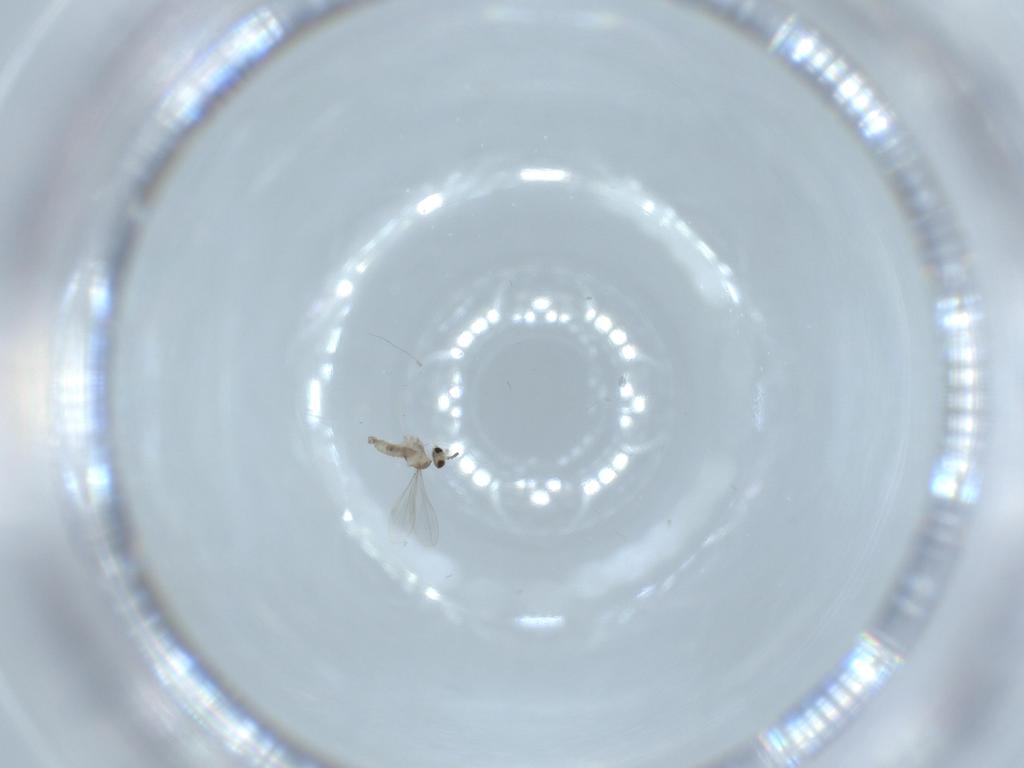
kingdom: Animalia
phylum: Arthropoda
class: Insecta
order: Diptera
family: Cecidomyiidae
